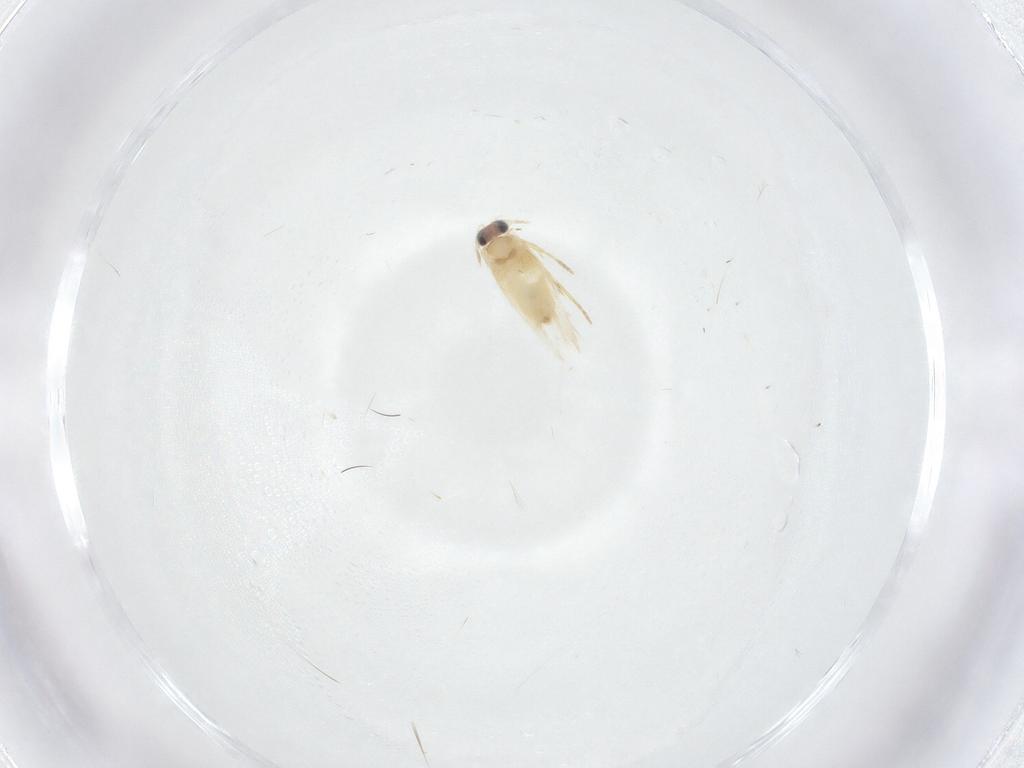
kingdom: Animalia
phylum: Arthropoda
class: Insecta
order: Lepidoptera
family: Crambidae
